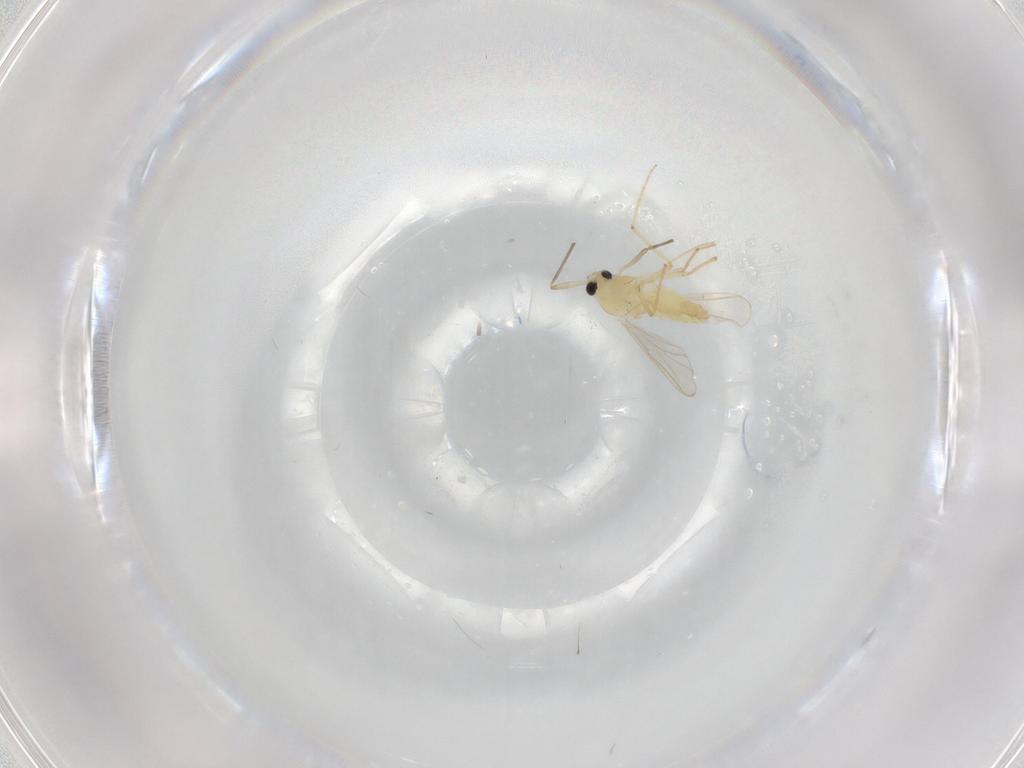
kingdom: Animalia
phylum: Arthropoda
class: Insecta
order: Diptera
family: Chironomidae
